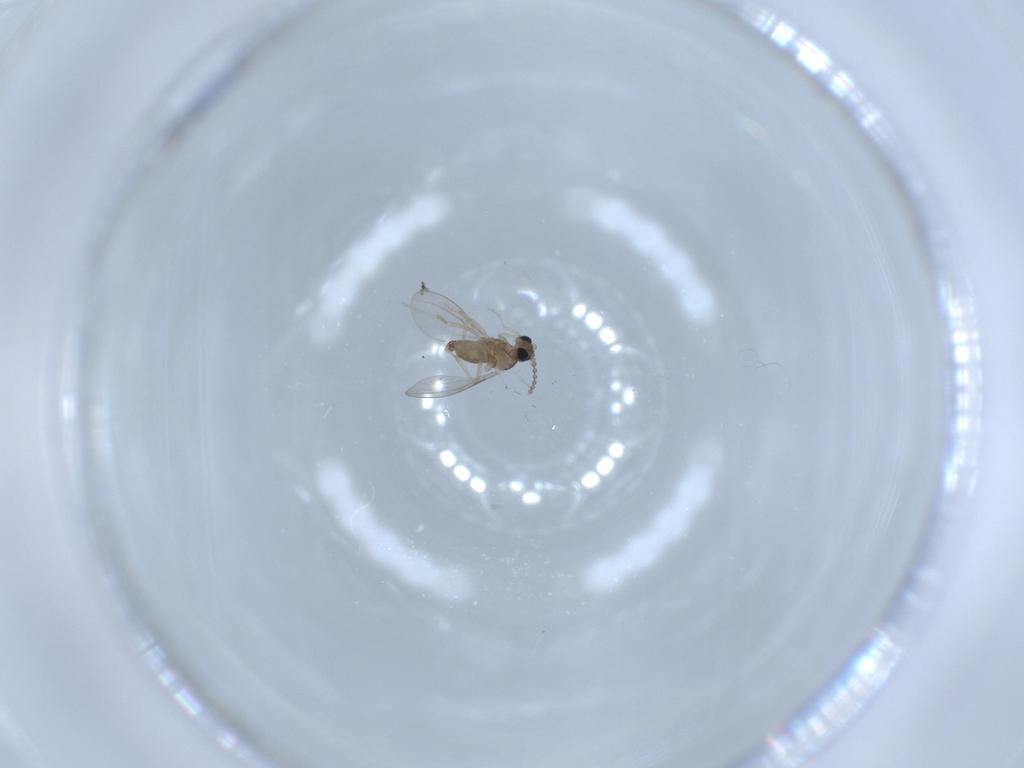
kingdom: Animalia
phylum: Arthropoda
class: Insecta
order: Diptera
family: Cecidomyiidae
